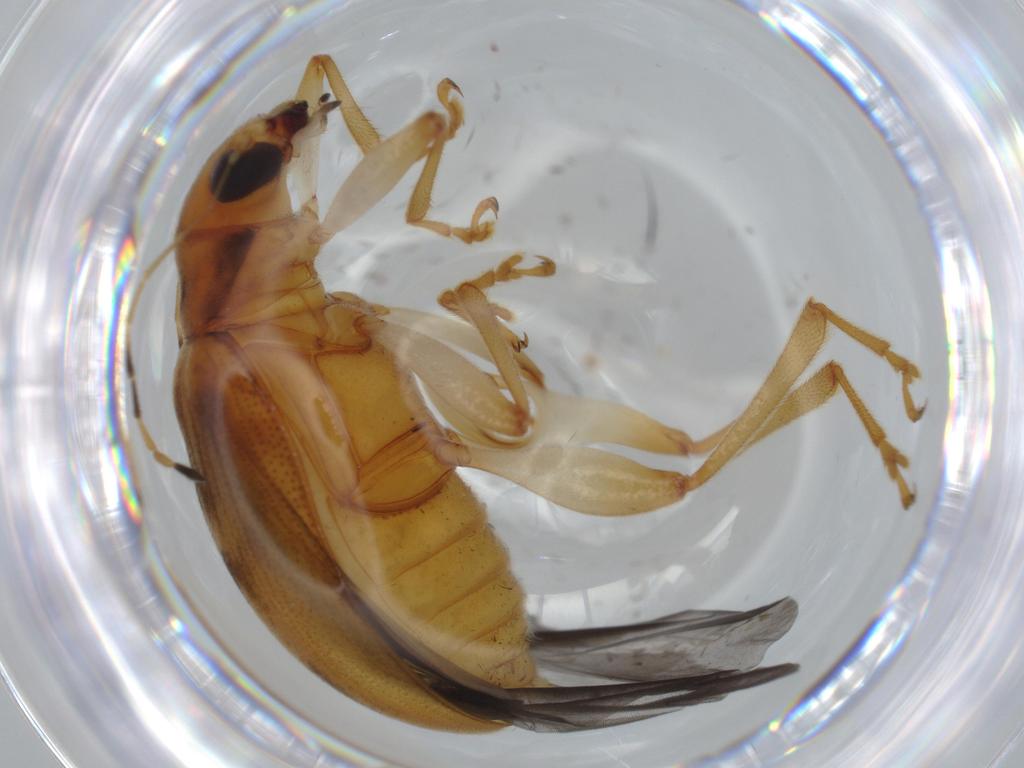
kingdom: Animalia
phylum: Arthropoda
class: Insecta
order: Coleoptera
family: Chrysomelidae
